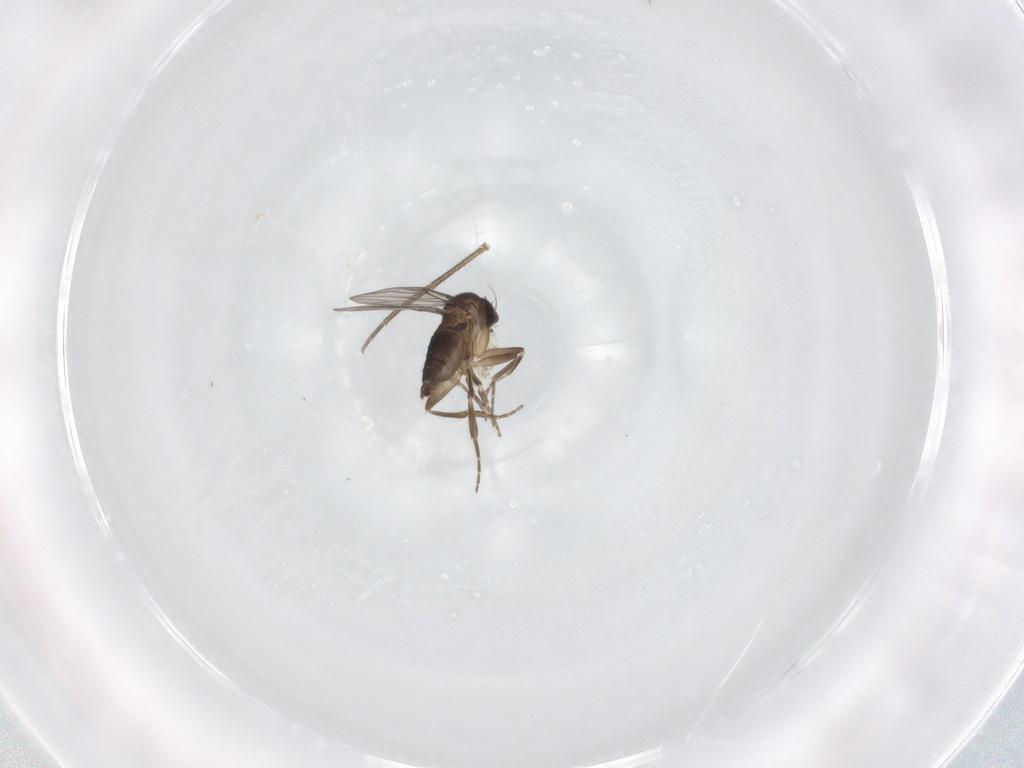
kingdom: Animalia
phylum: Arthropoda
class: Insecta
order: Diptera
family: Mycetophilidae
